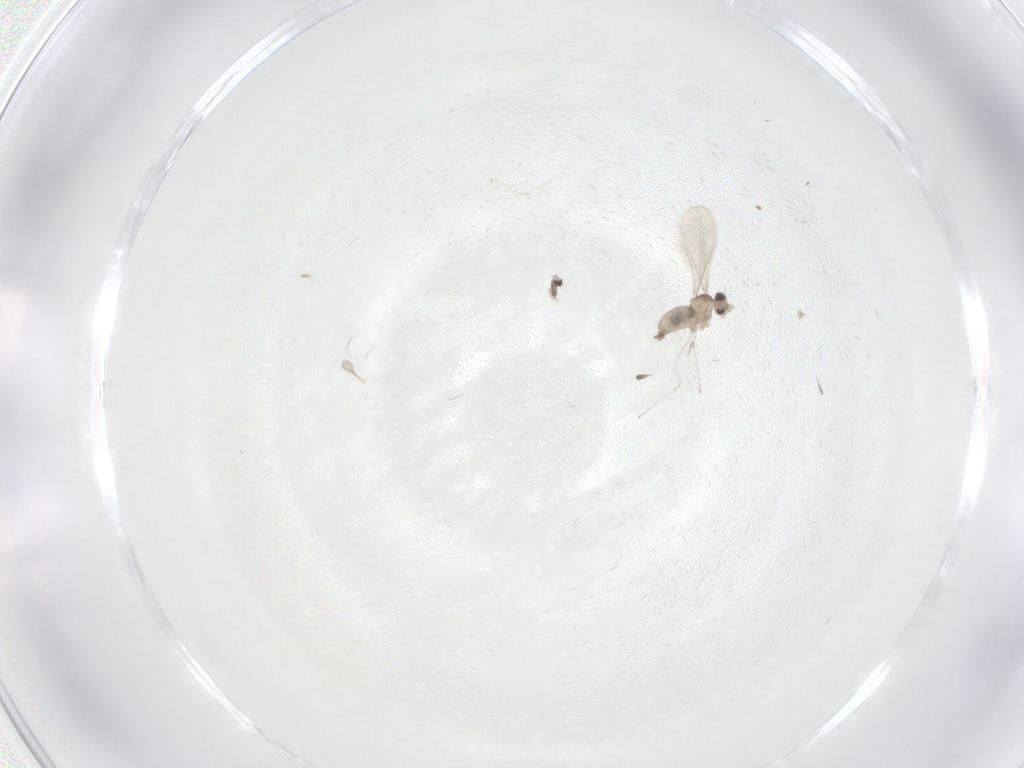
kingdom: Animalia
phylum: Arthropoda
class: Insecta
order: Diptera
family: Cecidomyiidae
